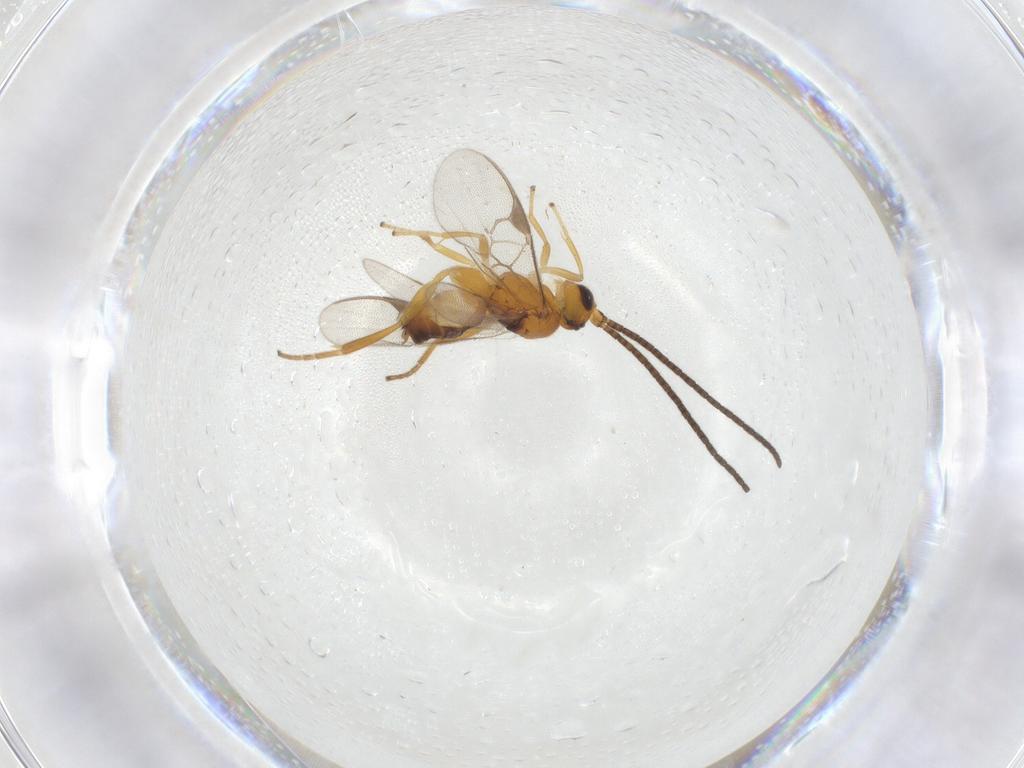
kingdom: Animalia
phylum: Arthropoda
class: Insecta
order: Hymenoptera
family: Braconidae
